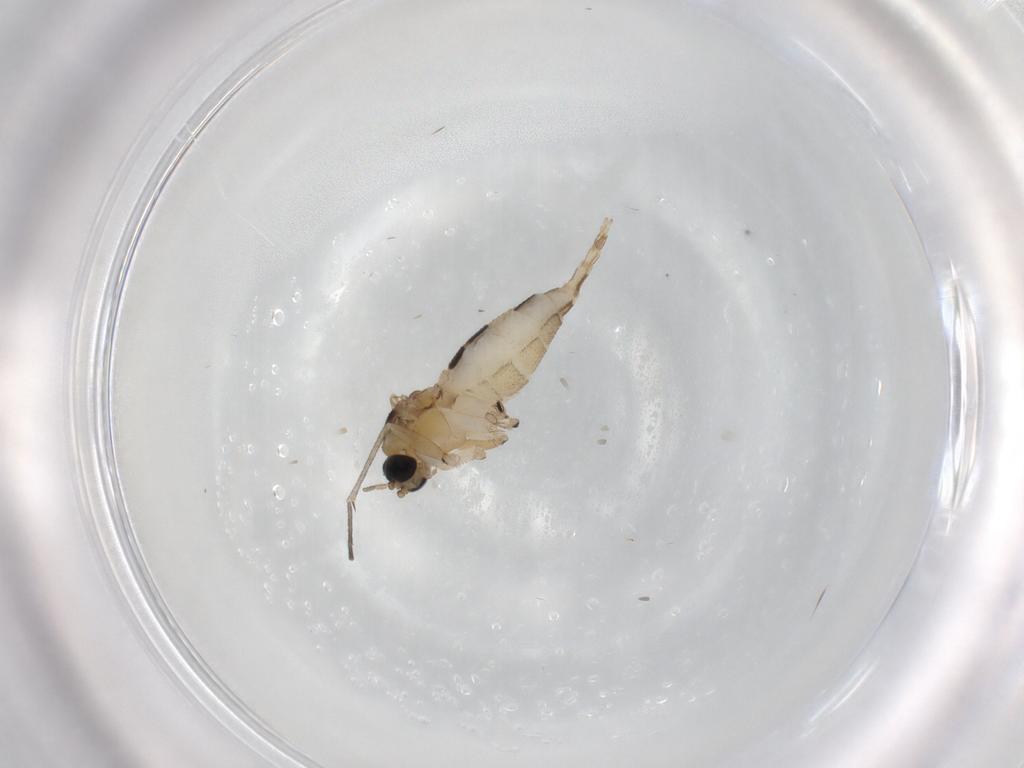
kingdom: Animalia
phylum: Arthropoda
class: Insecta
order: Diptera
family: Sciaridae
